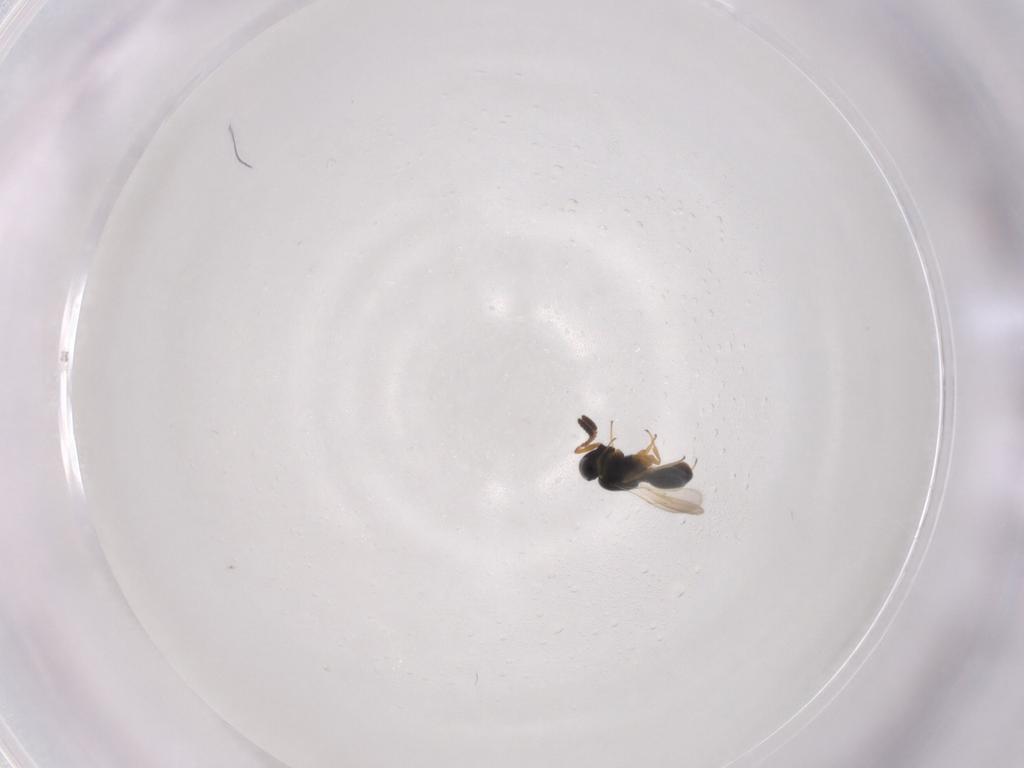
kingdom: Animalia
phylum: Arthropoda
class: Insecta
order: Hymenoptera
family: Scelionidae
